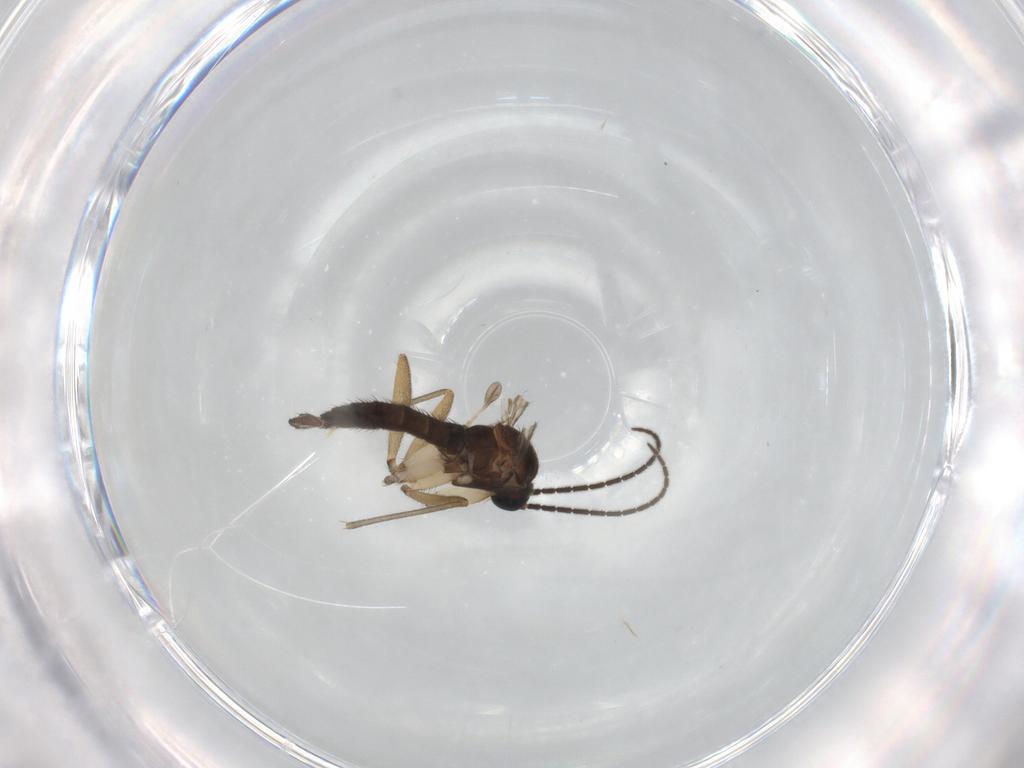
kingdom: Animalia
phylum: Arthropoda
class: Insecta
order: Diptera
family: Sciaridae
